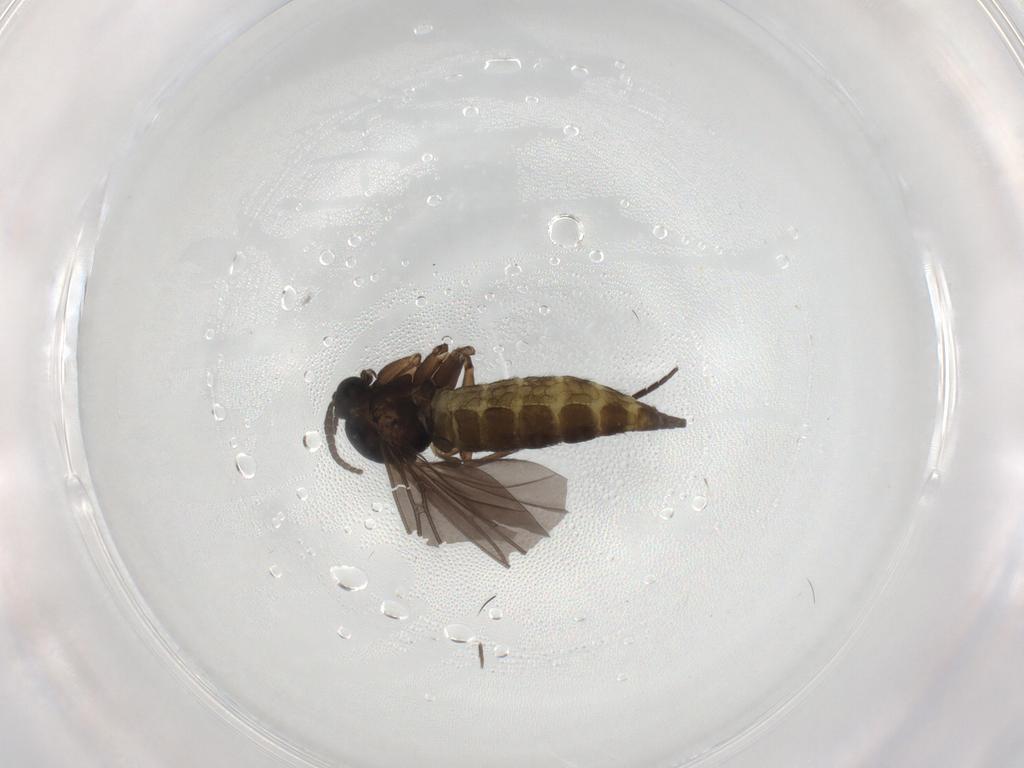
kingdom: Animalia
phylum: Arthropoda
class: Insecta
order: Diptera
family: Sciaridae
